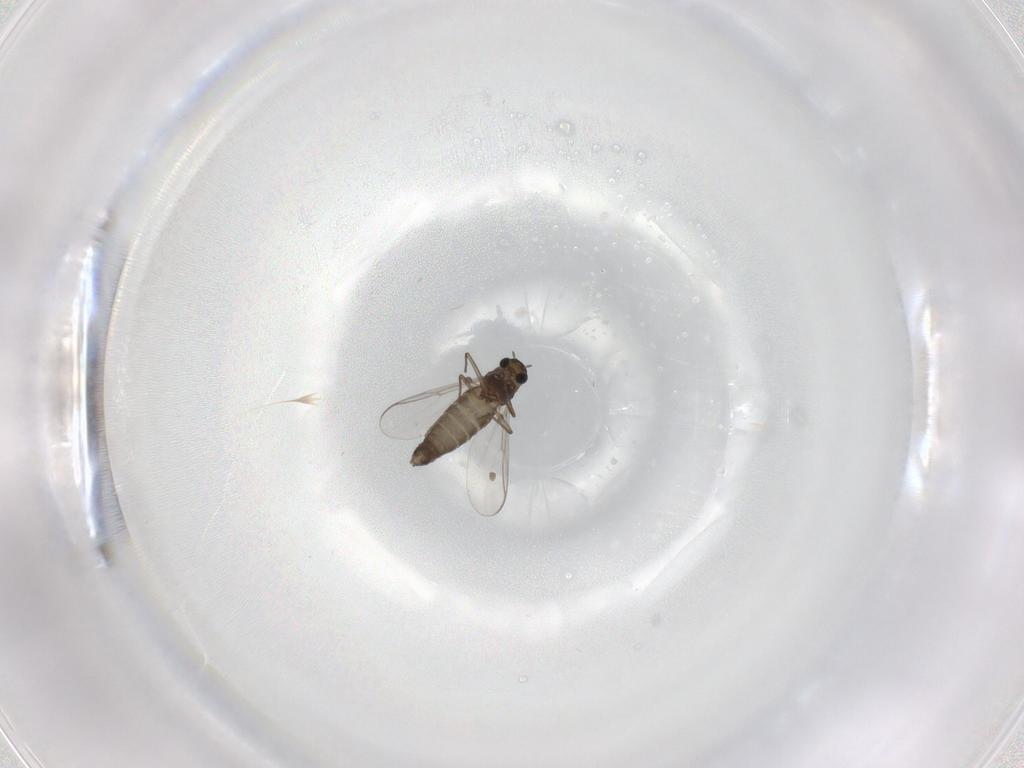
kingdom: Animalia
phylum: Arthropoda
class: Insecta
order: Diptera
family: Chironomidae
